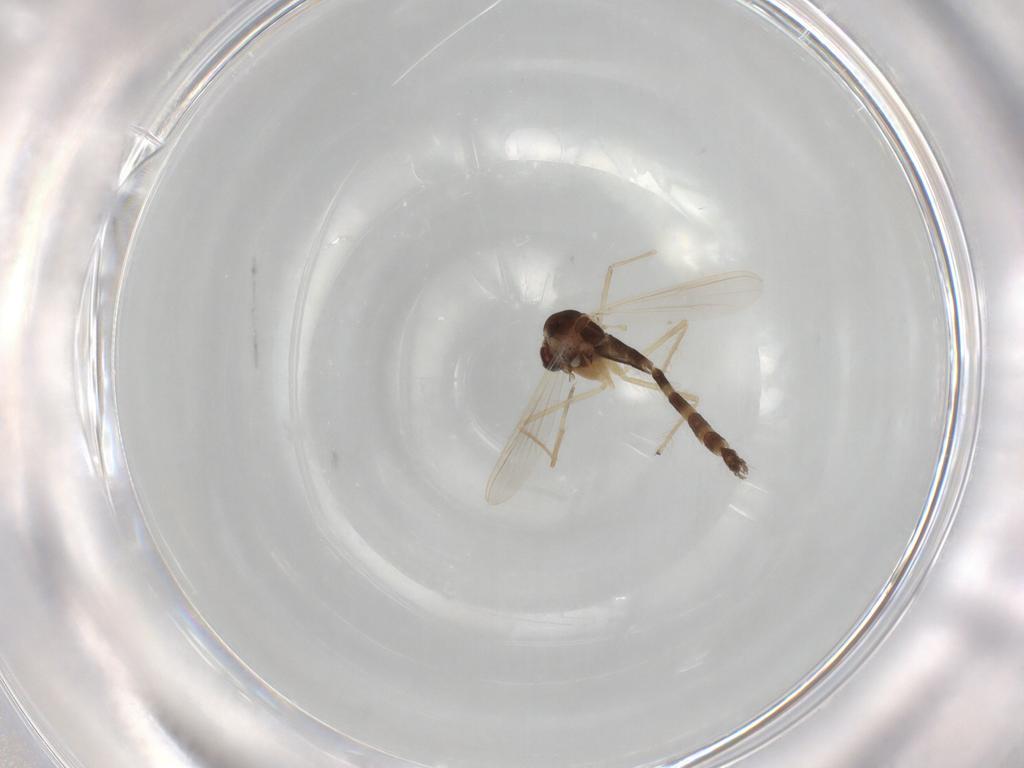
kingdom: Animalia
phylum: Arthropoda
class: Insecta
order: Diptera
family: Chironomidae
